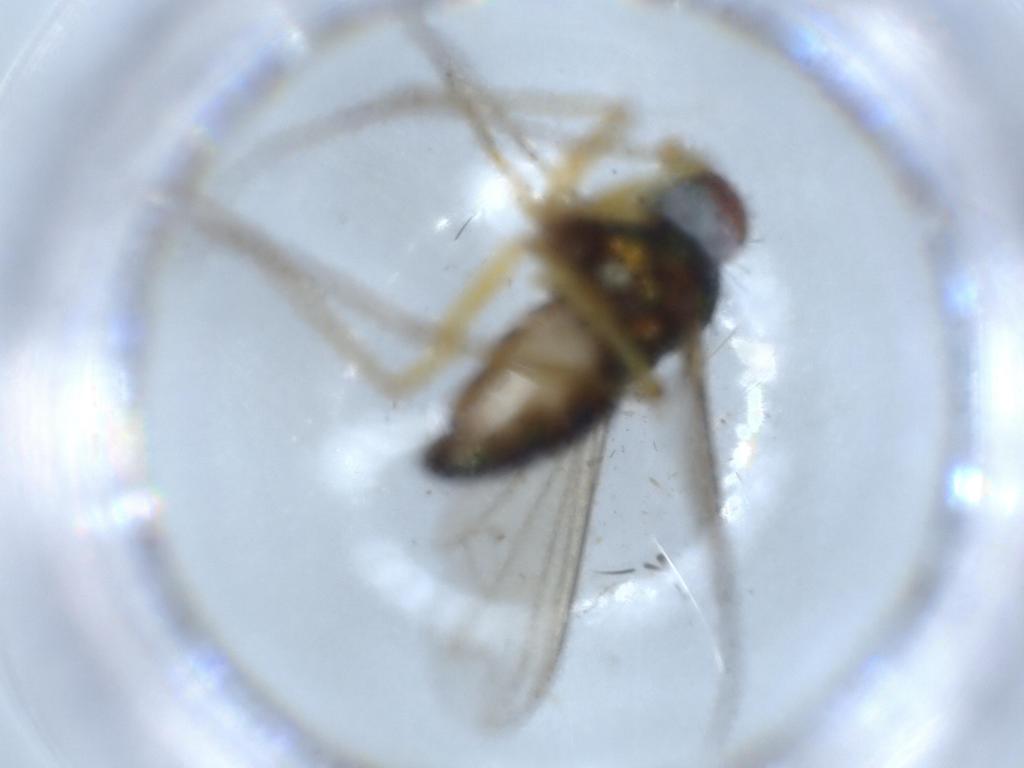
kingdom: Animalia
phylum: Arthropoda
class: Insecta
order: Diptera
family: Dolichopodidae
